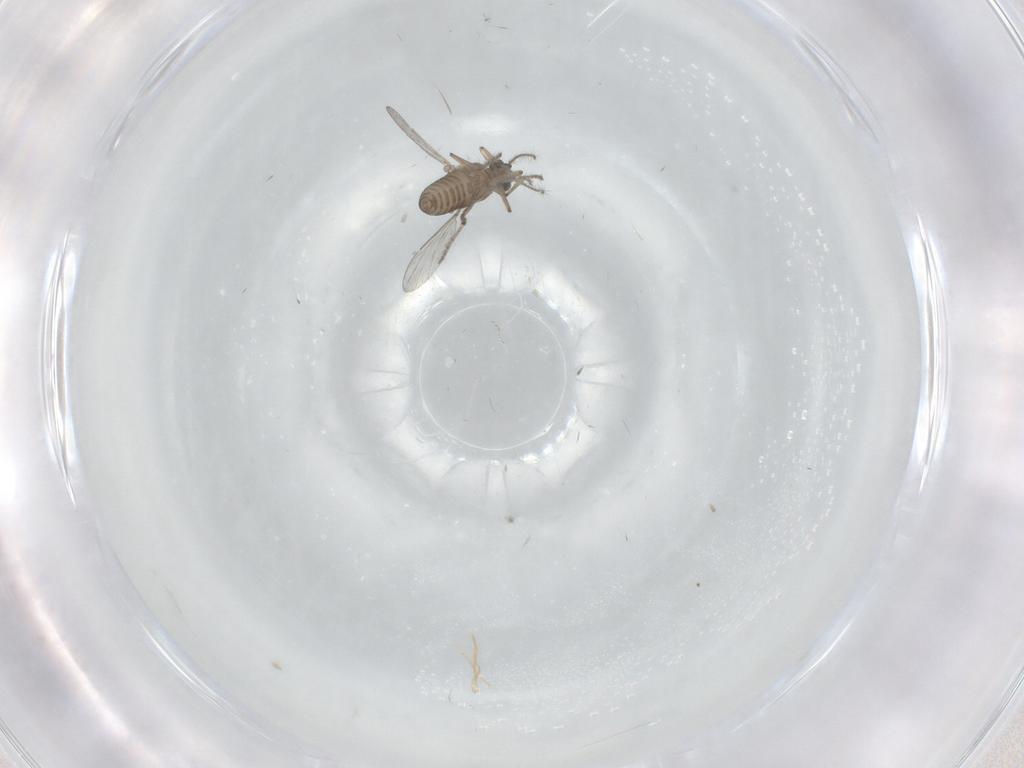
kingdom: Animalia
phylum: Arthropoda
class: Insecta
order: Diptera
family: Ceratopogonidae
